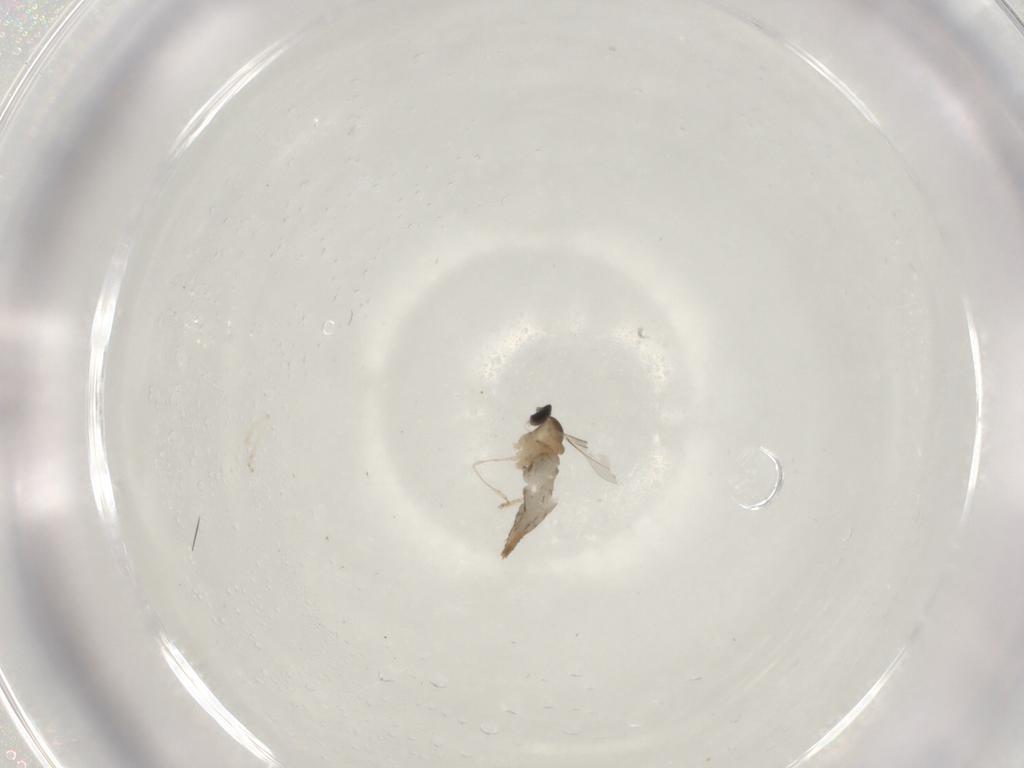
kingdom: Animalia
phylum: Arthropoda
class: Insecta
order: Diptera
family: Cecidomyiidae
